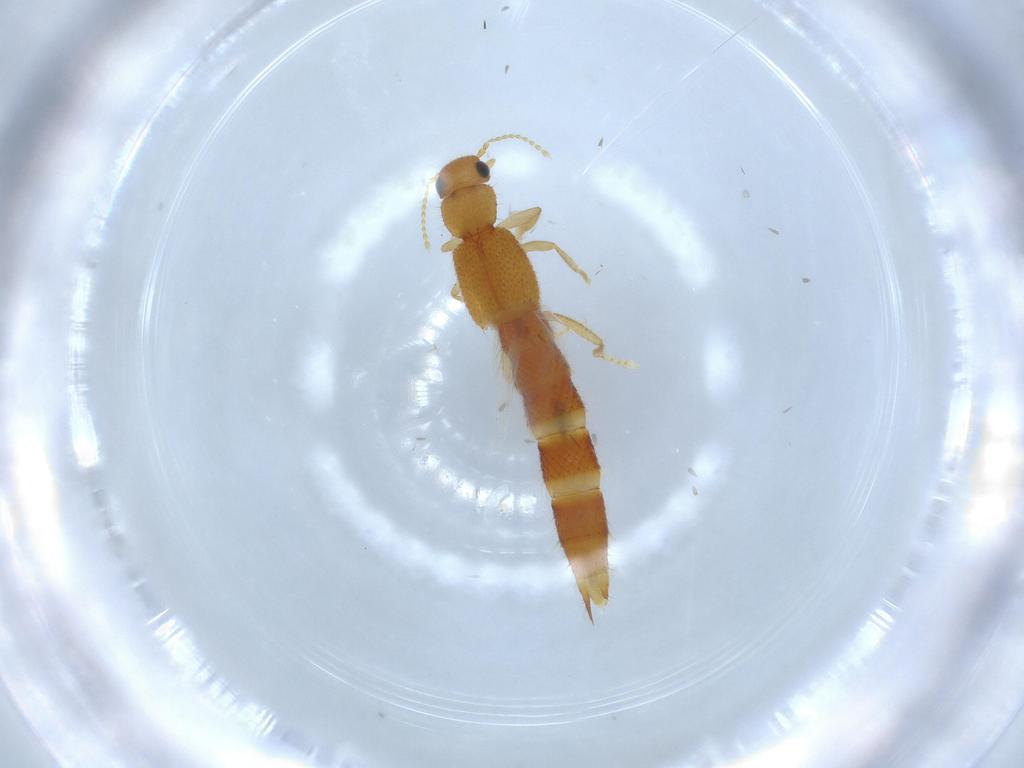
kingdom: Animalia
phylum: Arthropoda
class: Insecta
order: Coleoptera
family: Staphylinidae
